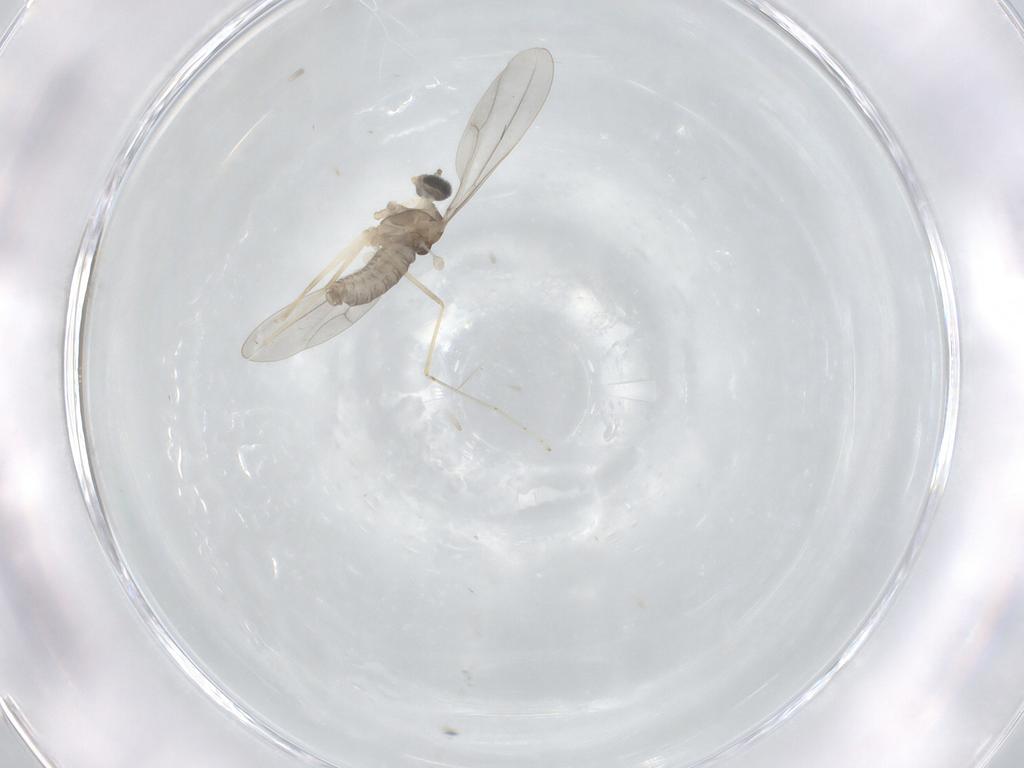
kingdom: Animalia
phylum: Arthropoda
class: Insecta
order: Diptera
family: Cecidomyiidae
